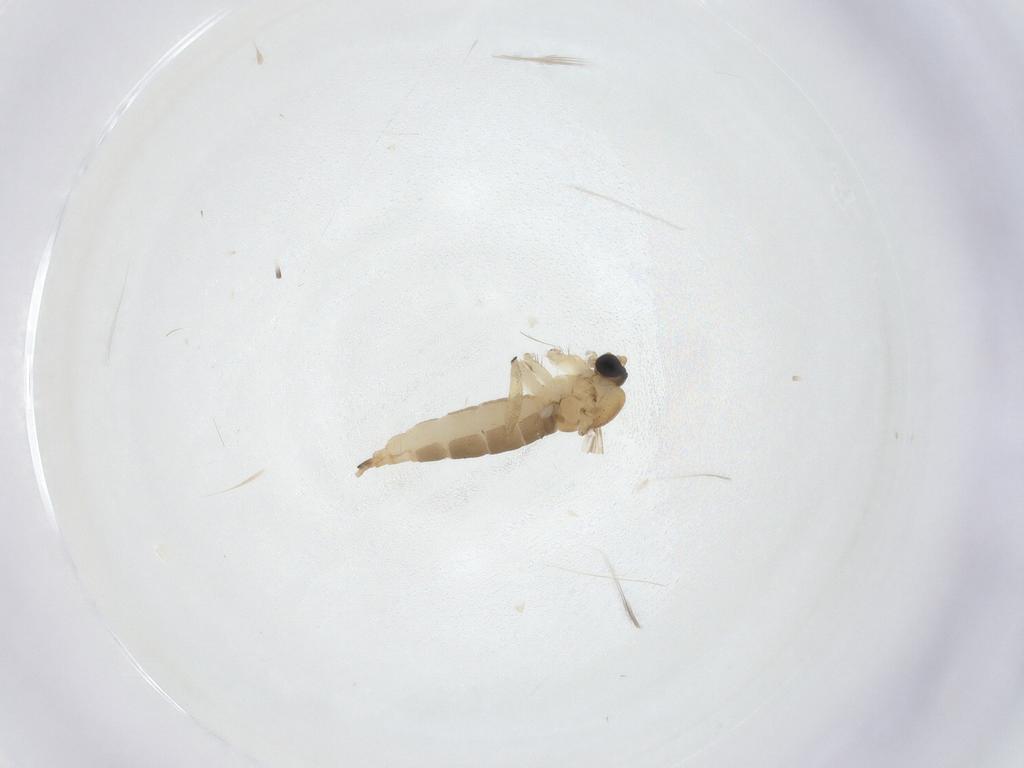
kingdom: Animalia
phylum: Arthropoda
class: Insecta
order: Diptera
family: Sciaridae
